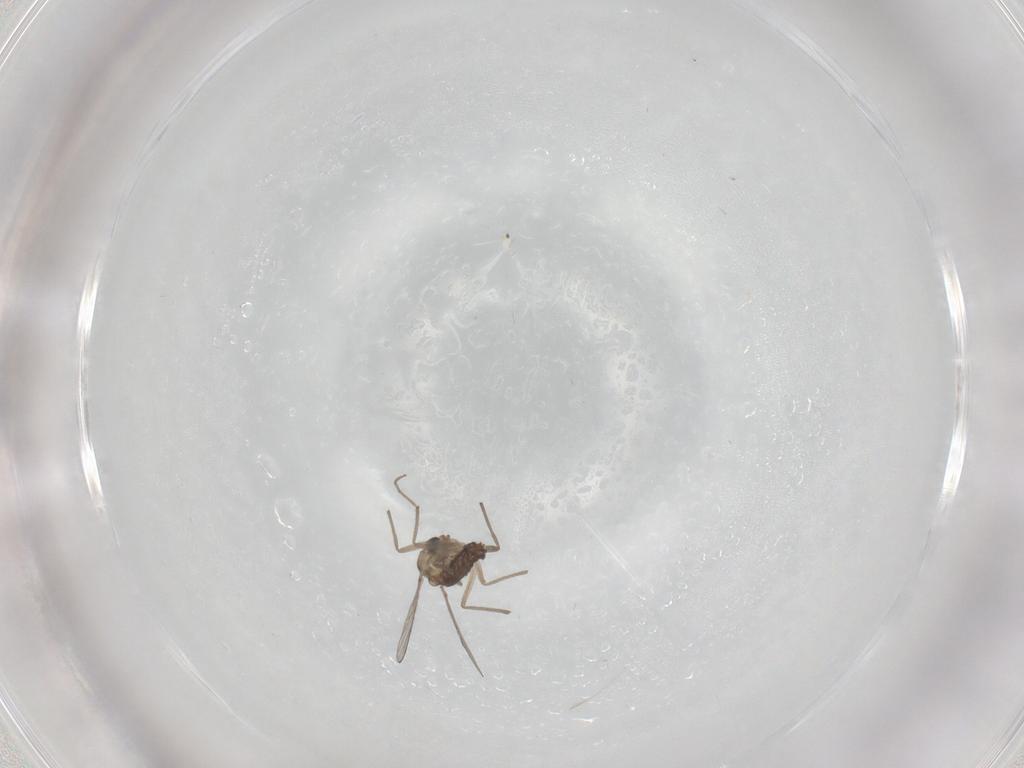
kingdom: Animalia
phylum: Arthropoda
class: Insecta
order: Diptera
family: Chironomidae
